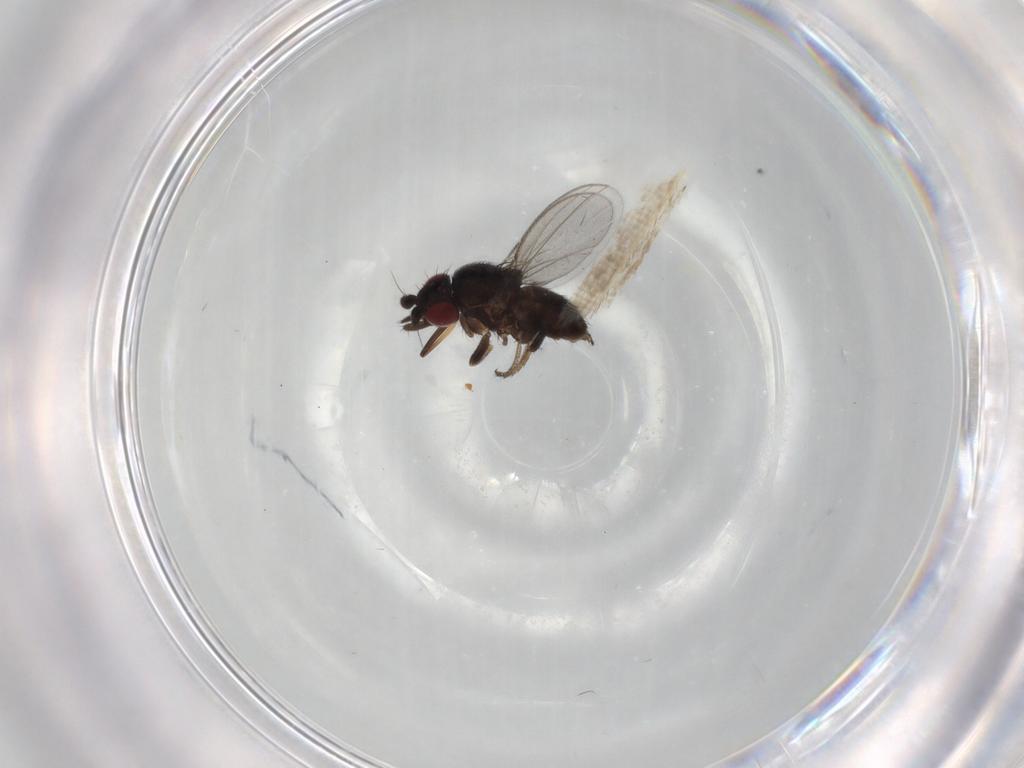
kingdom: Animalia
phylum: Arthropoda
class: Insecta
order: Diptera
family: Milichiidae
